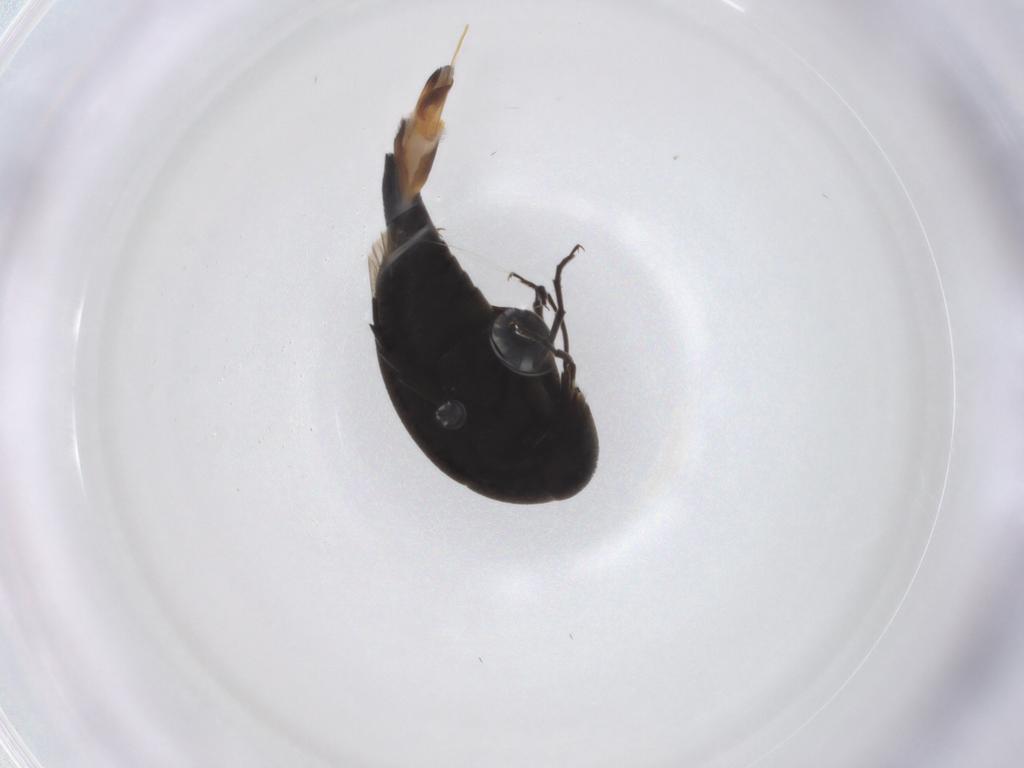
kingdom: Animalia
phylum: Arthropoda
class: Insecta
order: Coleoptera
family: Mordellidae
